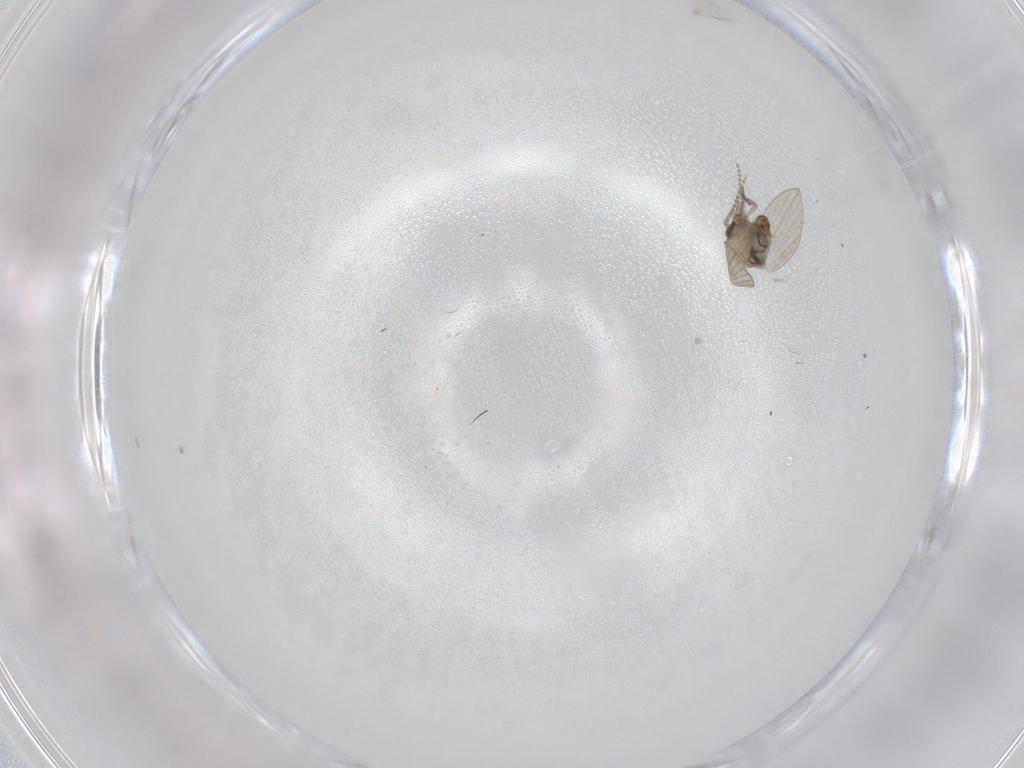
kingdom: Animalia
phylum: Arthropoda
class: Insecta
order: Diptera
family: Psychodidae
